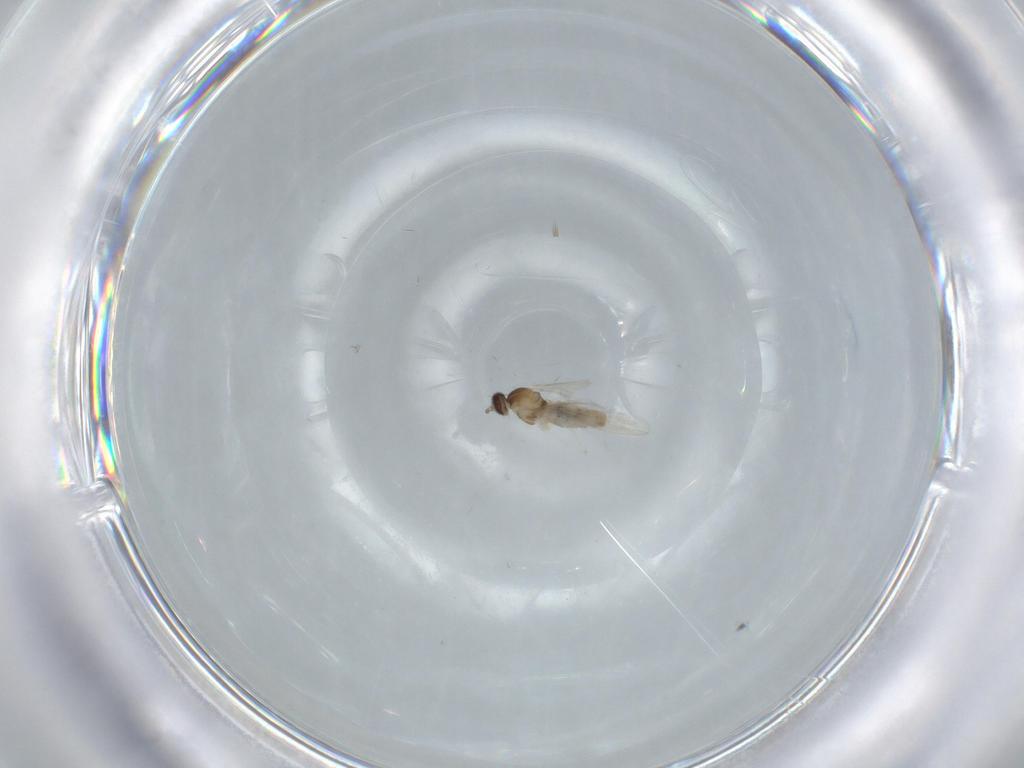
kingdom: Animalia
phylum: Arthropoda
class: Insecta
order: Diptera
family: Cecidomyiidae
